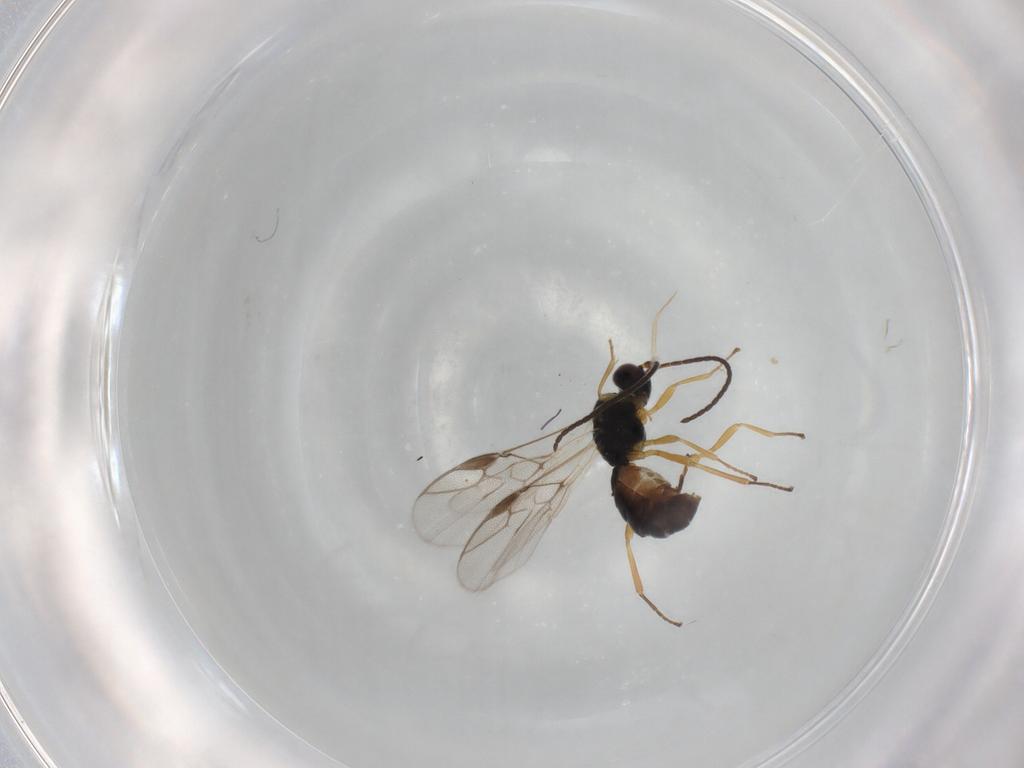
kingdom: Animalia
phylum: Arthropoda
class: Insecta
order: Hymenoptera
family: Braconidae
